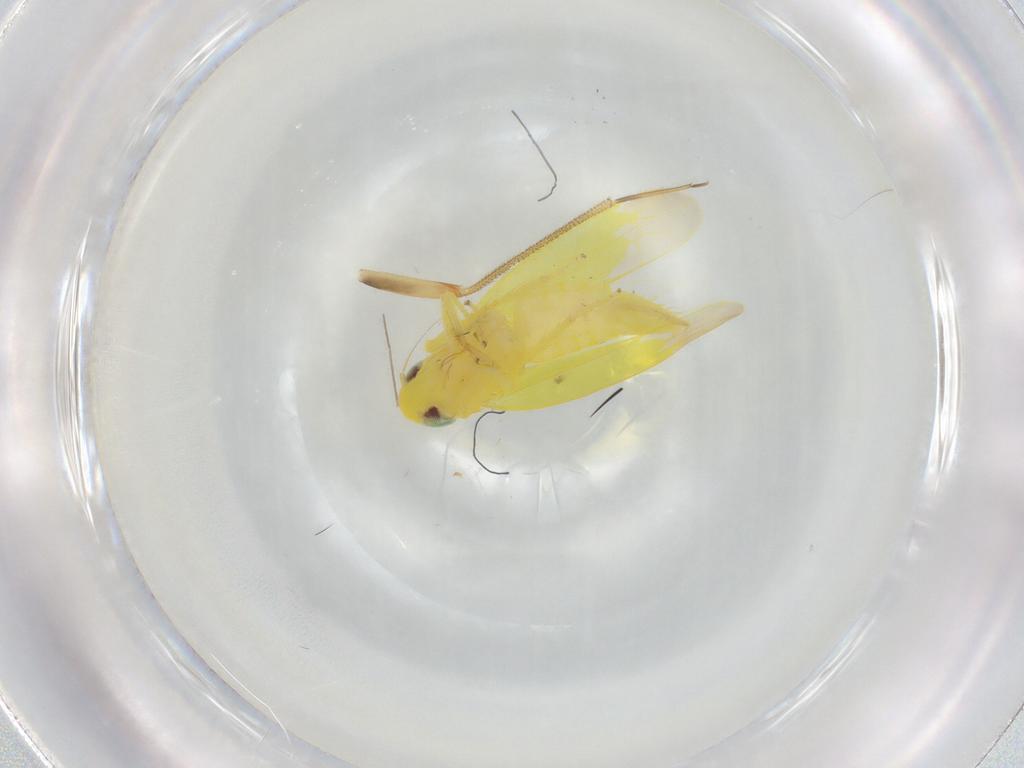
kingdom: Animalia
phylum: Arthropoda
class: Insecta
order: Hemiptera
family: Cicadellidae
